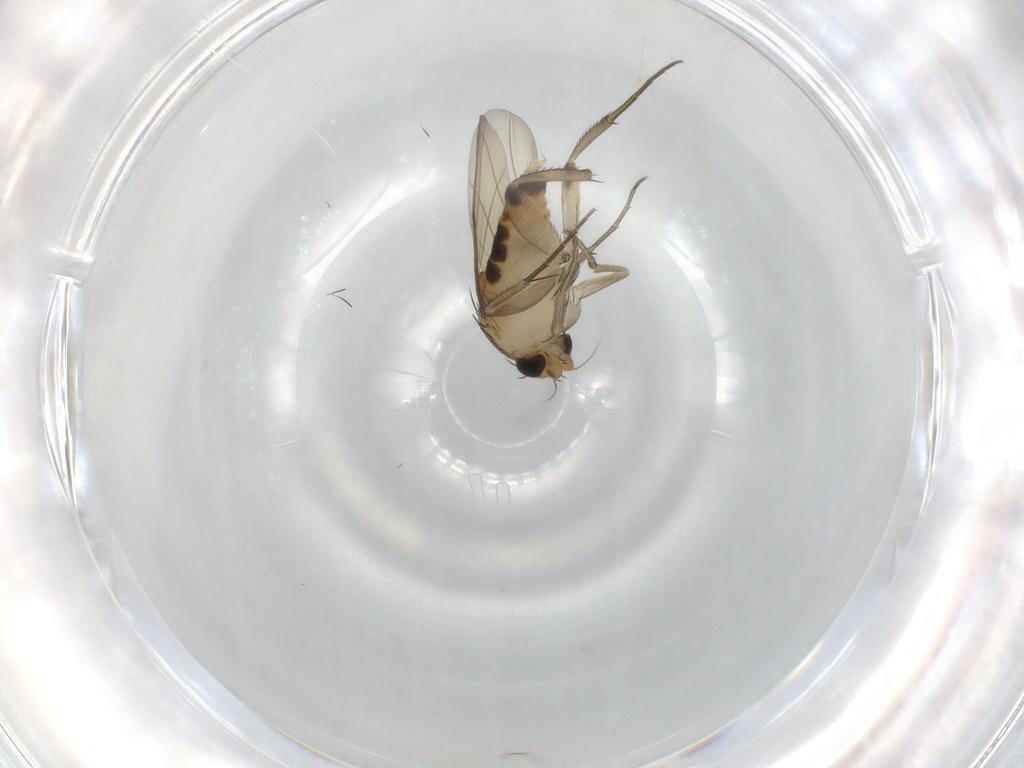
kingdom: Animalia
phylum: Arthropoda
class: Insecta
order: Diptera
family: Phoridae
